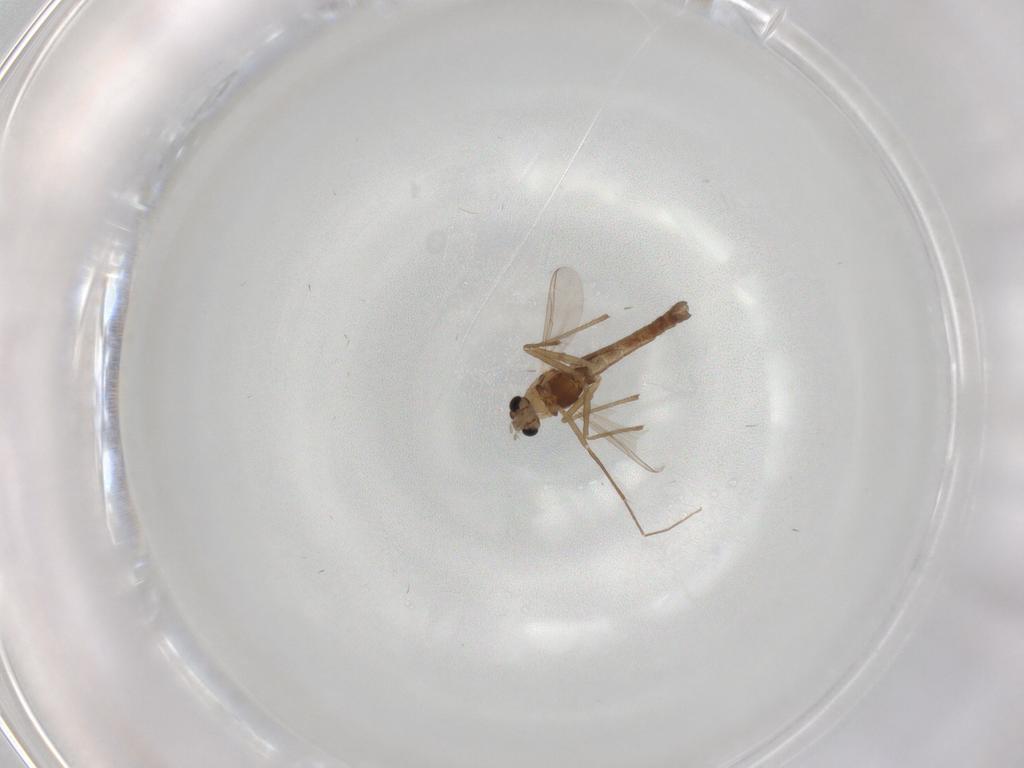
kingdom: Animalia
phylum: Arthropoda
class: Insecta
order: Diptera
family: Chironomidae
